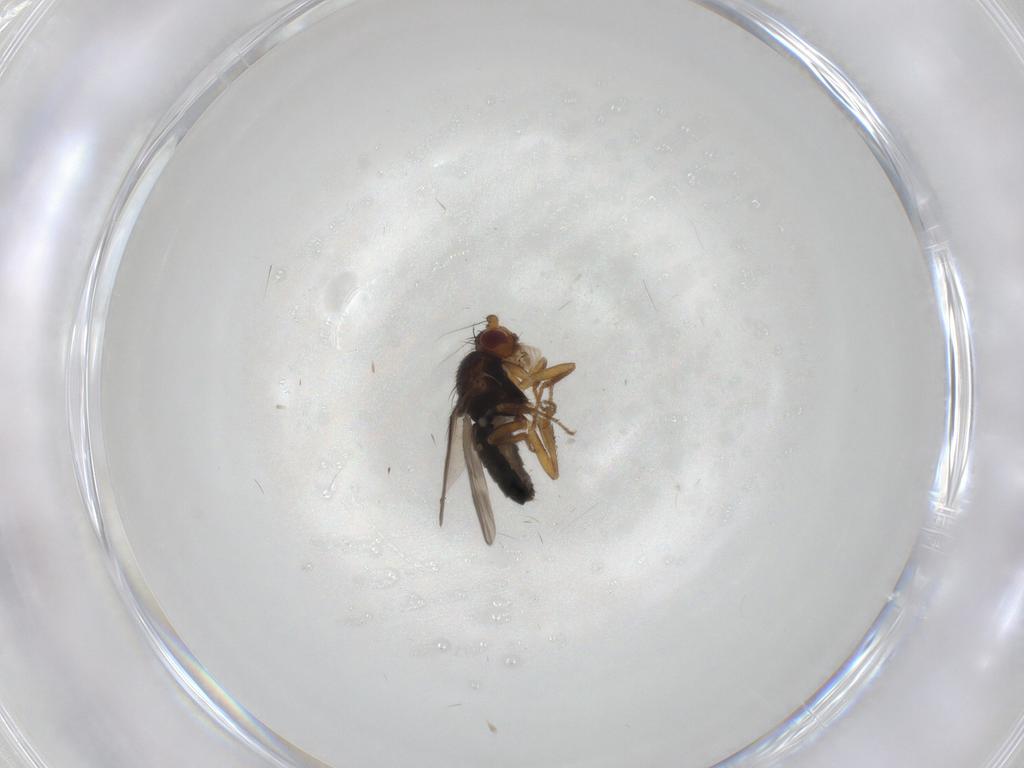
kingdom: Animalia
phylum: Arthropoda
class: Insecta
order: Diptera
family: Sphaeroceridae
